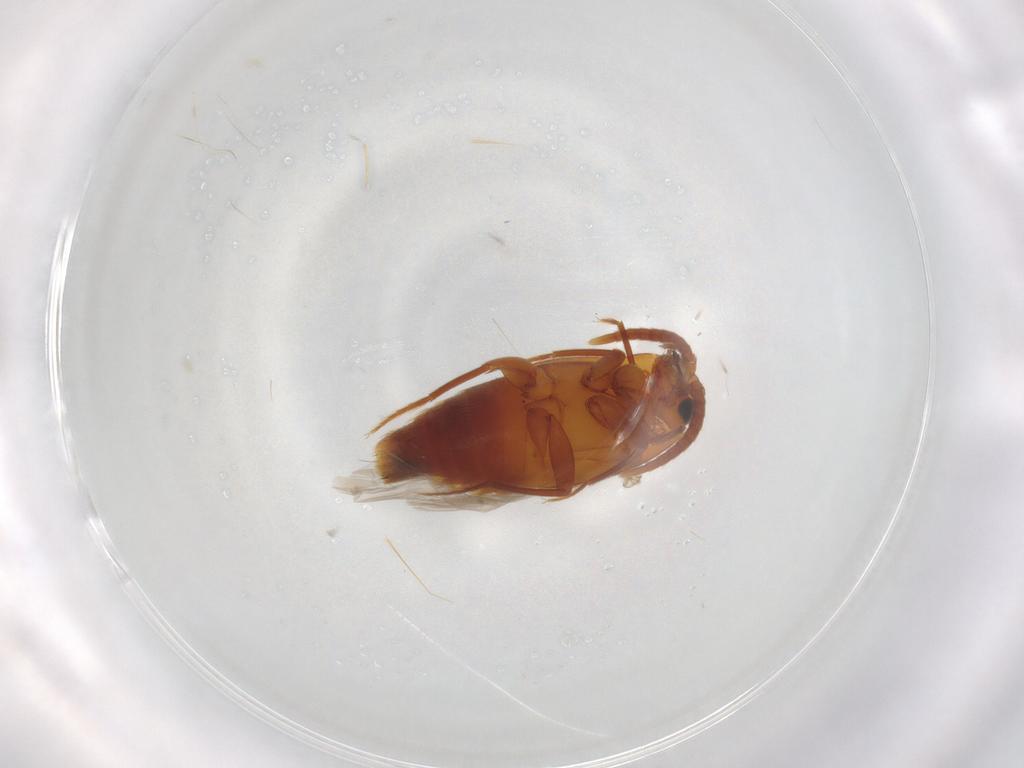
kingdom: Animalia
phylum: Arthropoda
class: Insecta
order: Coleoptera
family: Staphylinidae
